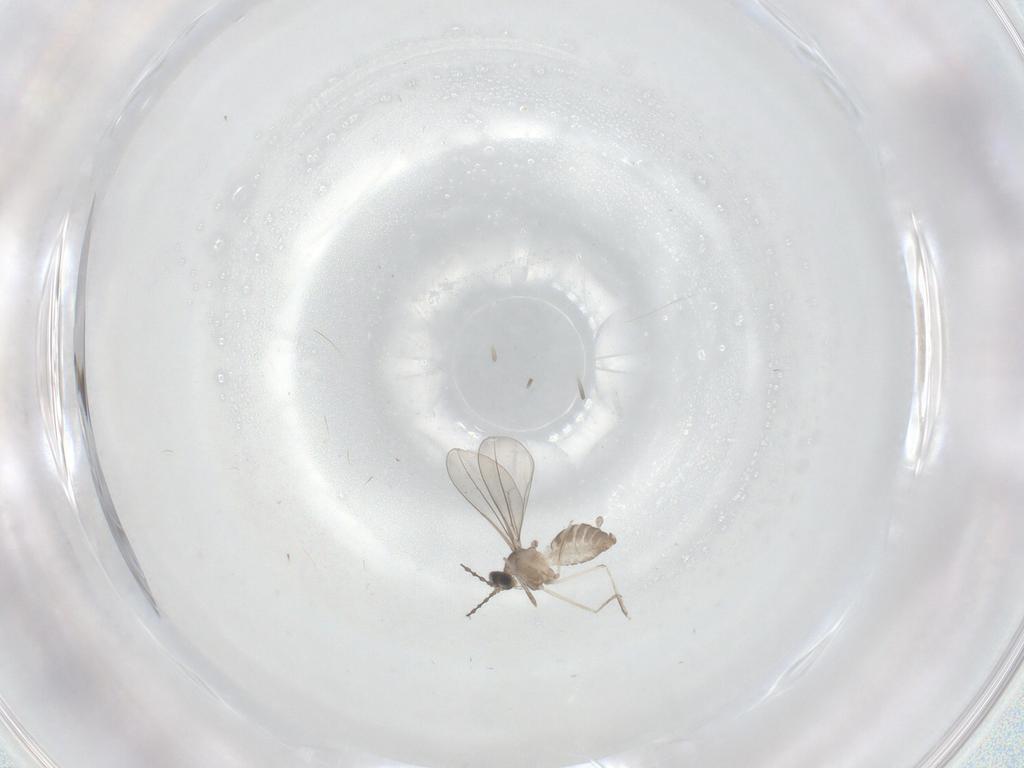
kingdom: Animalia
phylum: Arthropoda
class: Insecta
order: Diptera
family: Cecidomyiidae
